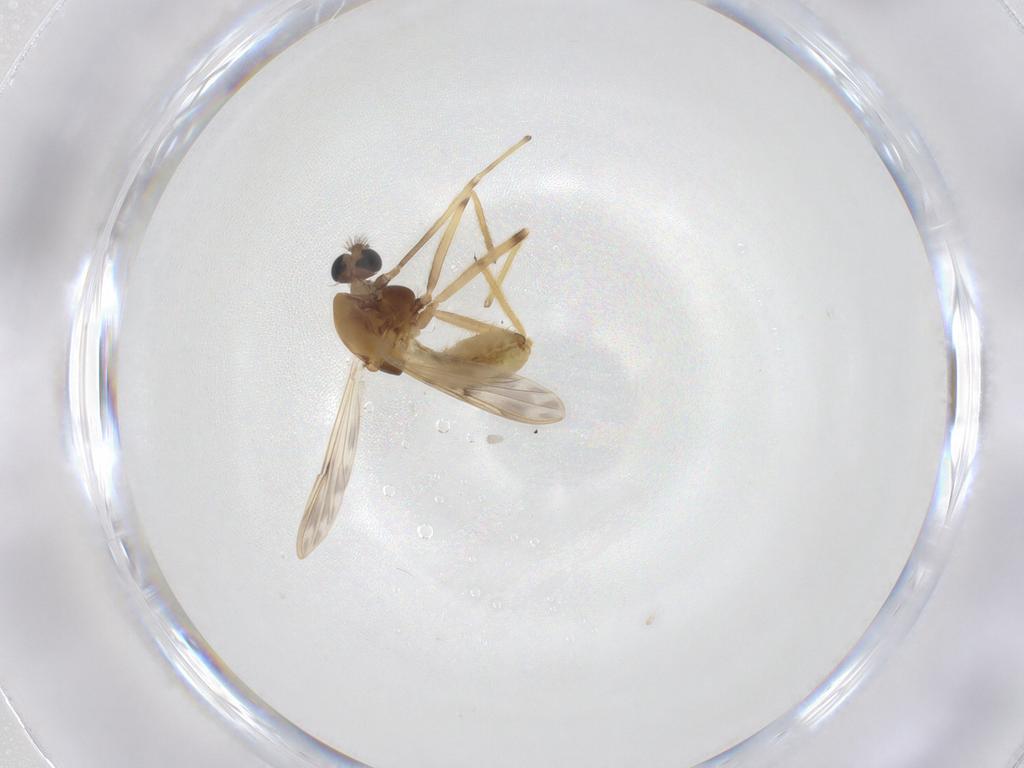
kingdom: Animalia
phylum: Arthropoda
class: Insecta
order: Diptera
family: Chironomidae
